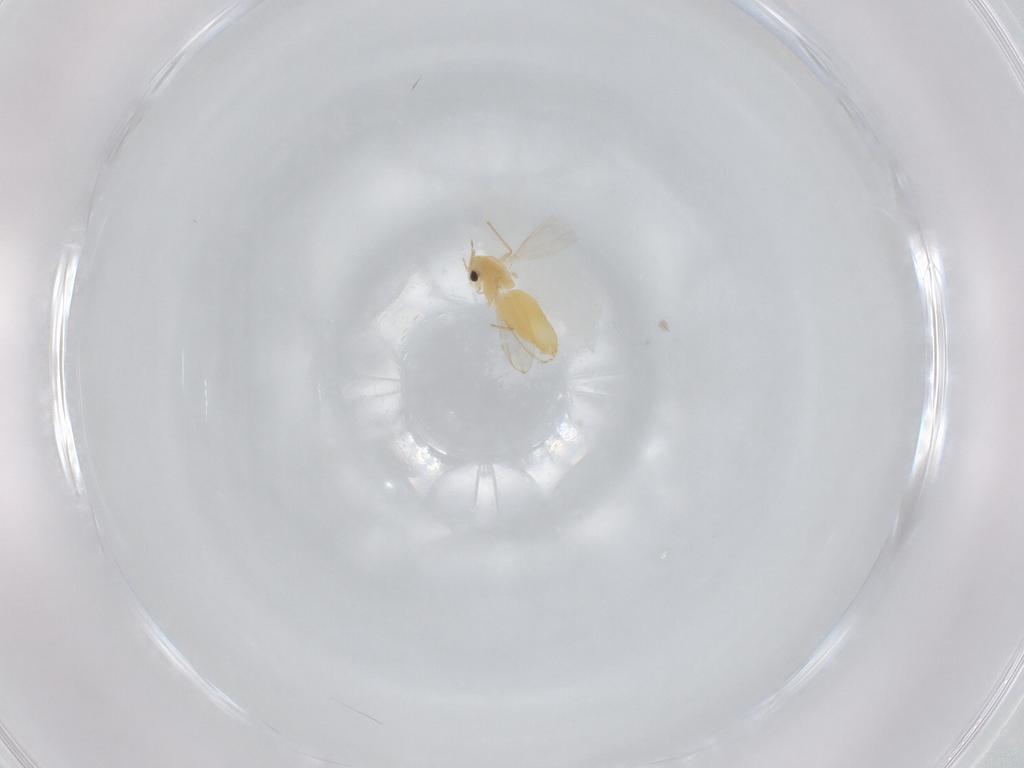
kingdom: Animalia
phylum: Arthropoda
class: Insecta
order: Diptera
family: Chironomidae
